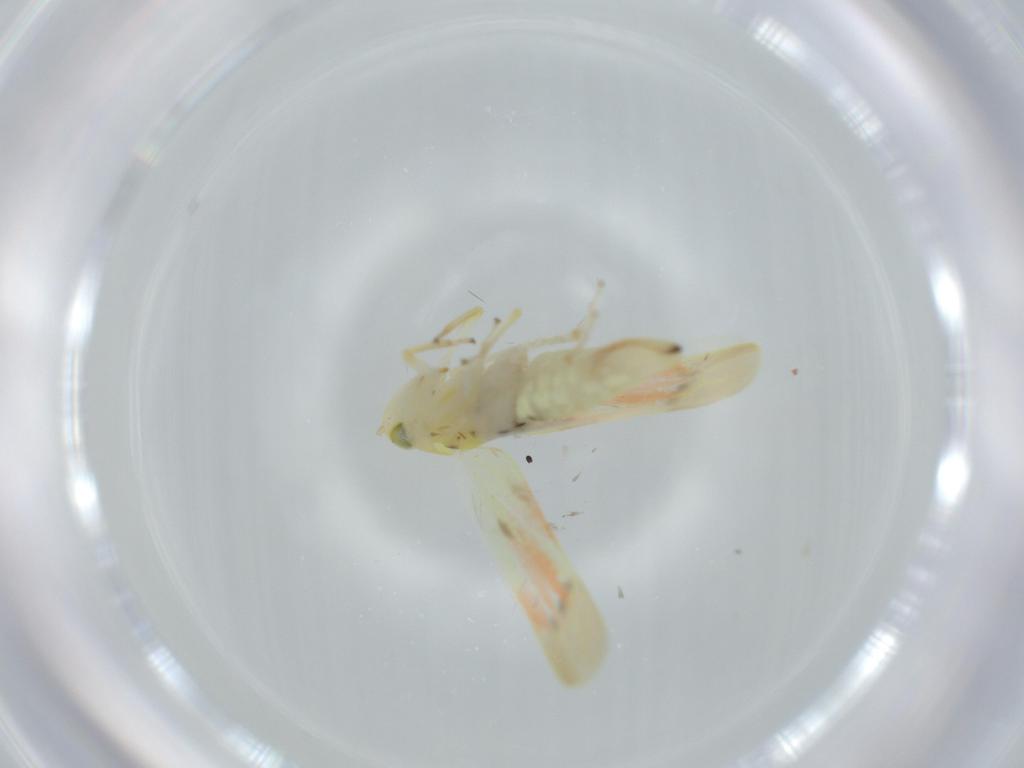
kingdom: Animalia
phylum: Arthropoda
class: Insecta
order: Hemiptera
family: Cicadellidae
